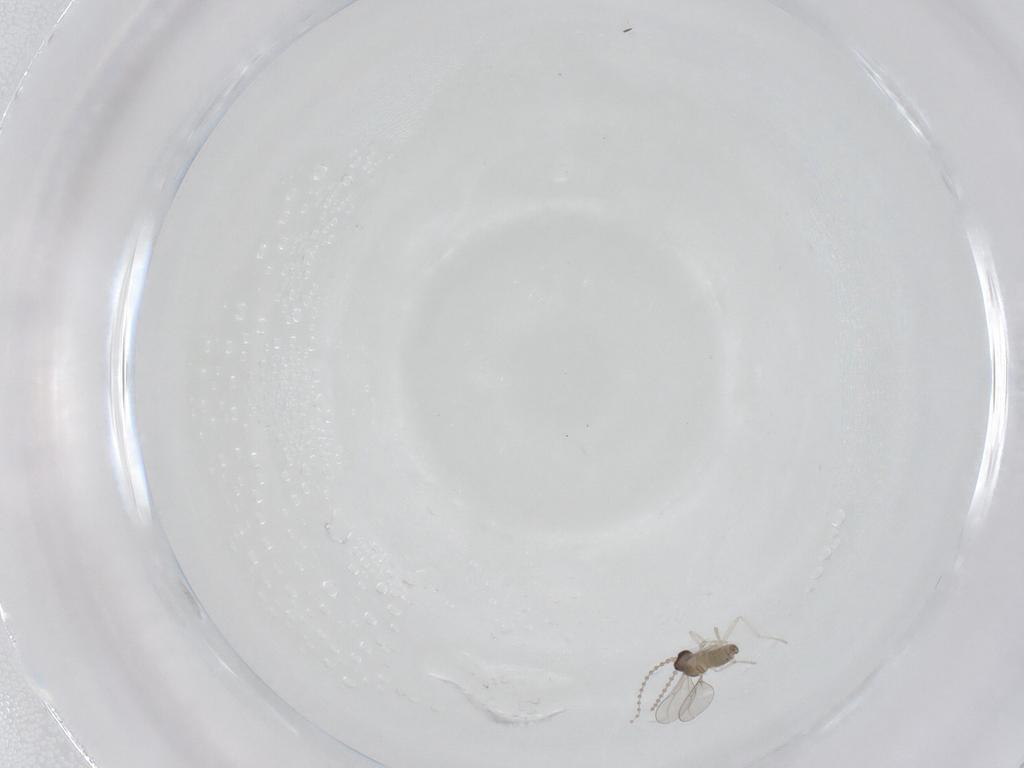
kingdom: Animalia
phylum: Arthropoda
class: Insecta
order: Diptera
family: Cecidomyiidae
